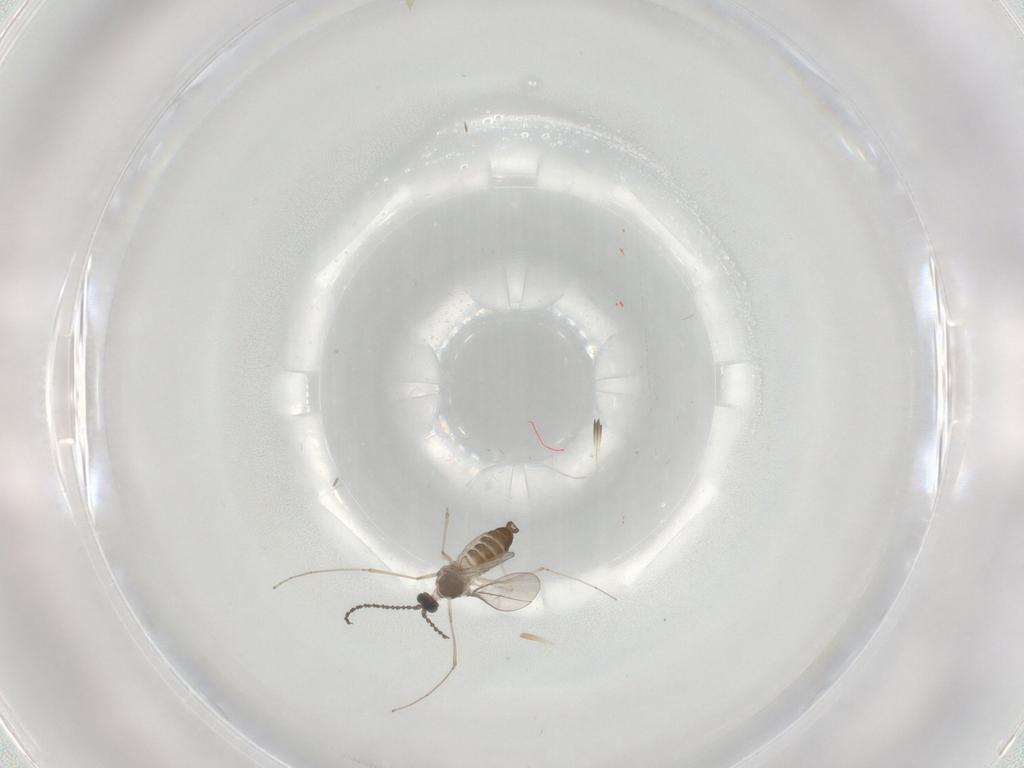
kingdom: Animalia
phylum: Arthropoda
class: Insecta
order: Diptera
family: Cecidomyiidae
